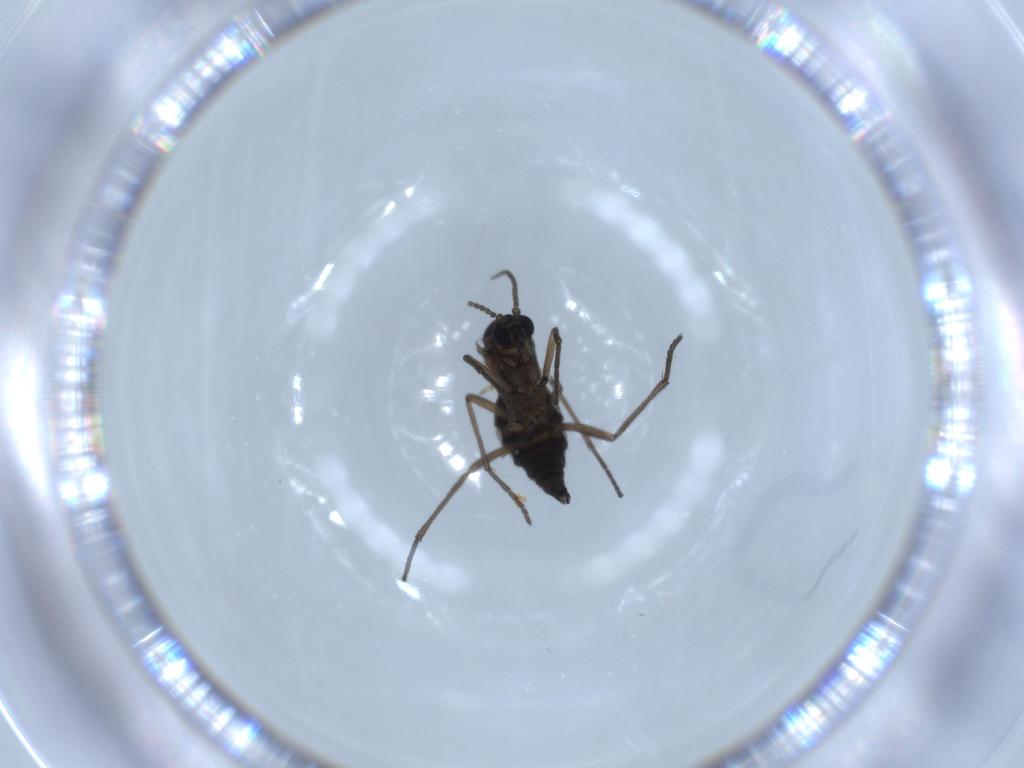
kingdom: Animalia
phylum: Arthropoda
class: Insecta
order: Diptera
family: Sciaridae
